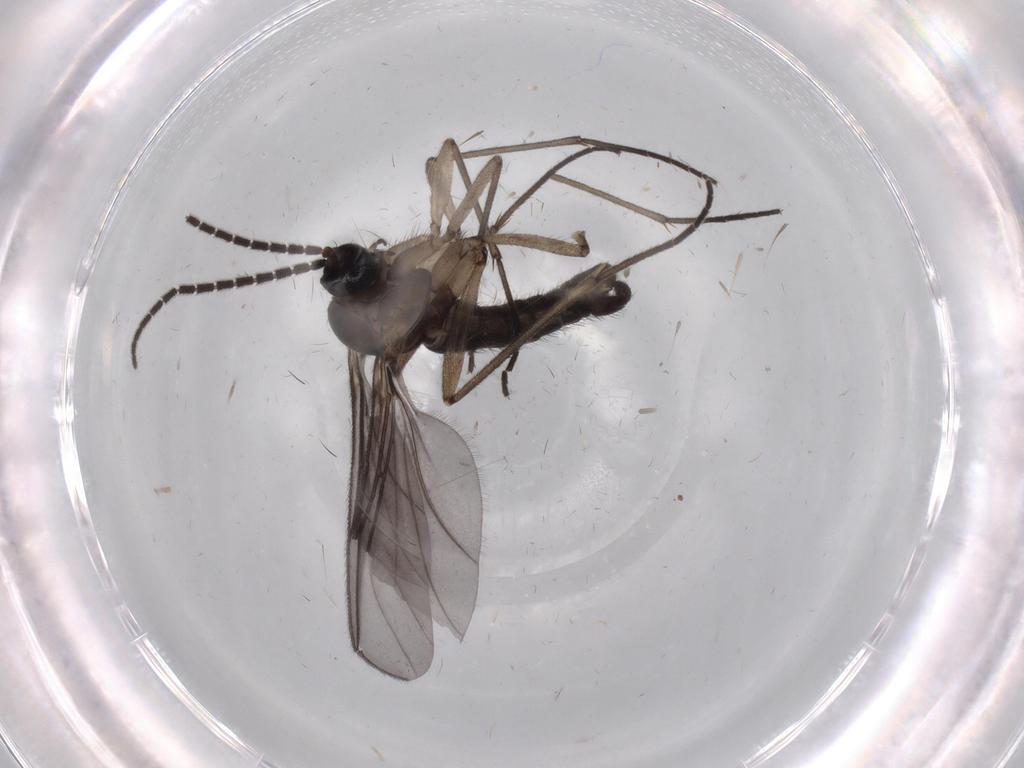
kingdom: Animalia
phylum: Arthropoda
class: Insecta
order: Diptera
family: Sciaridae
